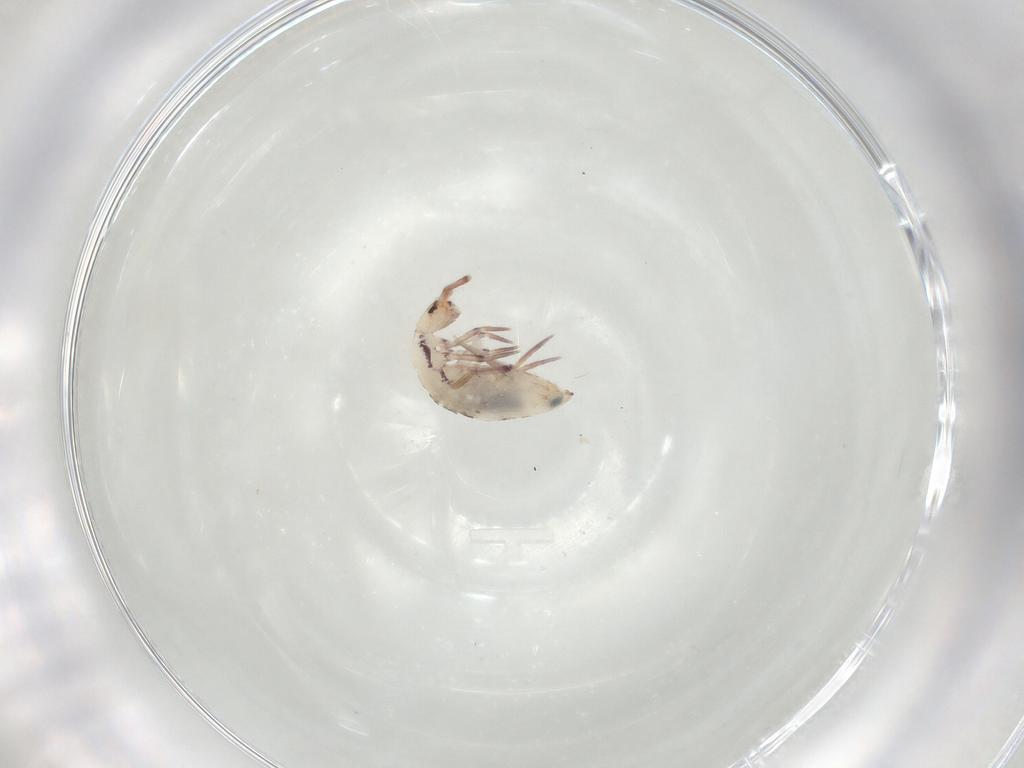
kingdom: Animalia
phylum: Arthropoda
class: Collembola
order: Entomobryomorpha
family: Entomobryidae
